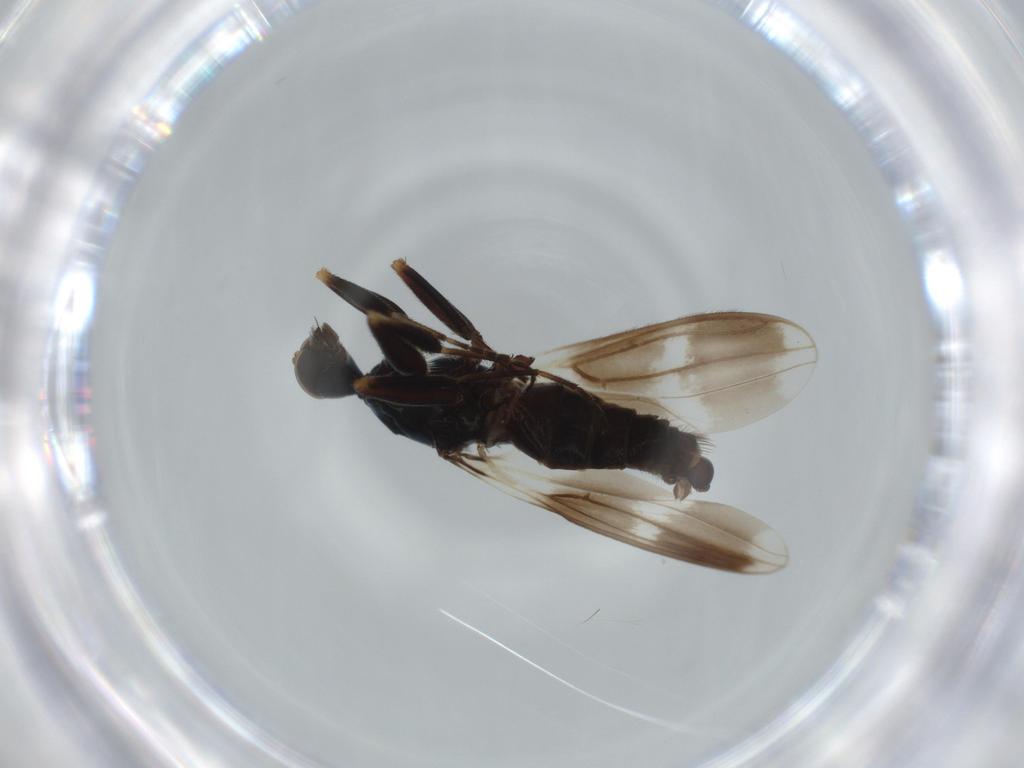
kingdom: Animalia
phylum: Arthropoda
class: Insecta
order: Diptera
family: Hybotidae
